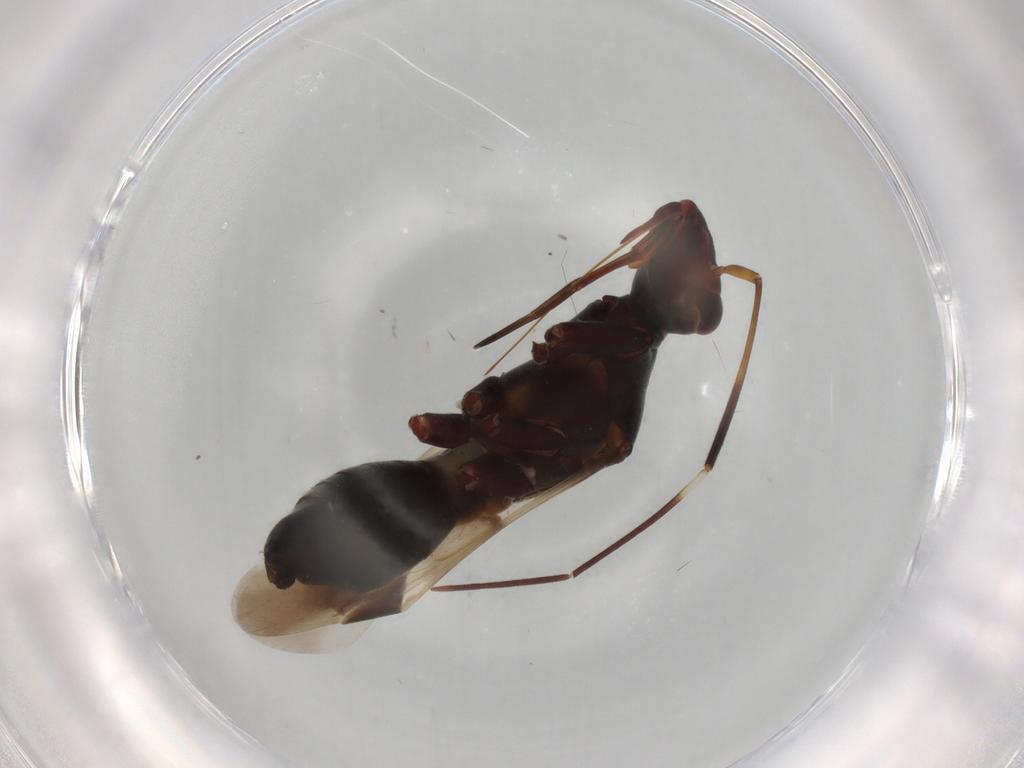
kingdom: Animalia
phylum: Arthropoda
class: Insecta
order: Hemiptera
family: Miridae
